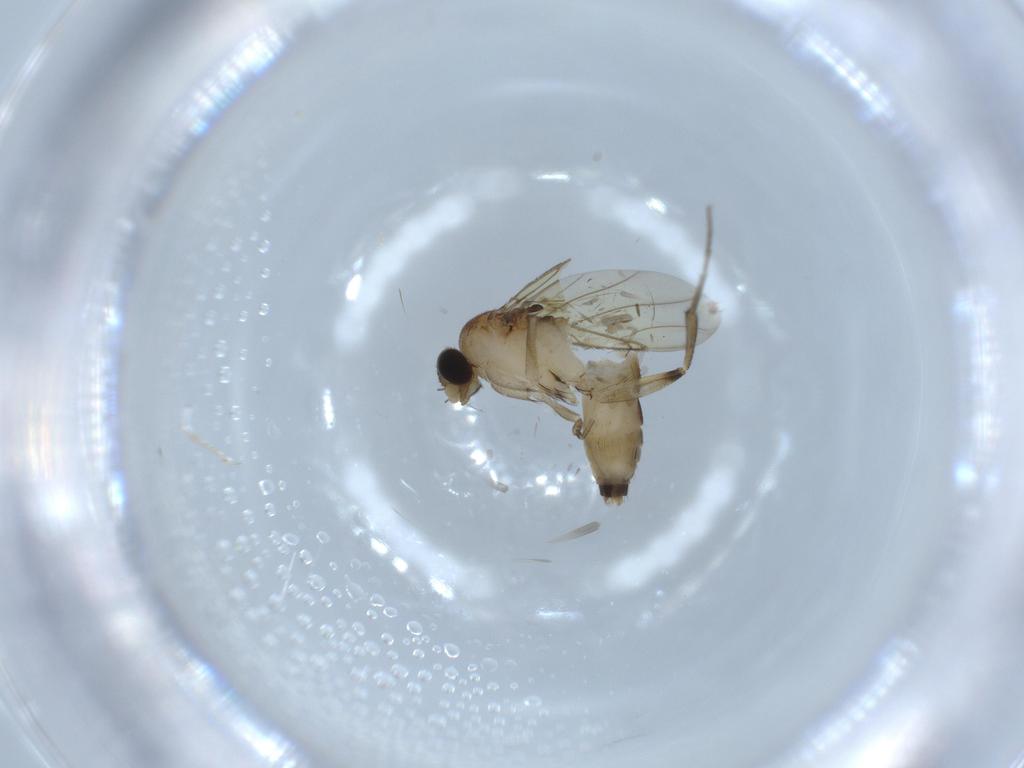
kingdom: Animalia
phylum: Arthropoda
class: Insecta
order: Diptera
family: Phoridae
